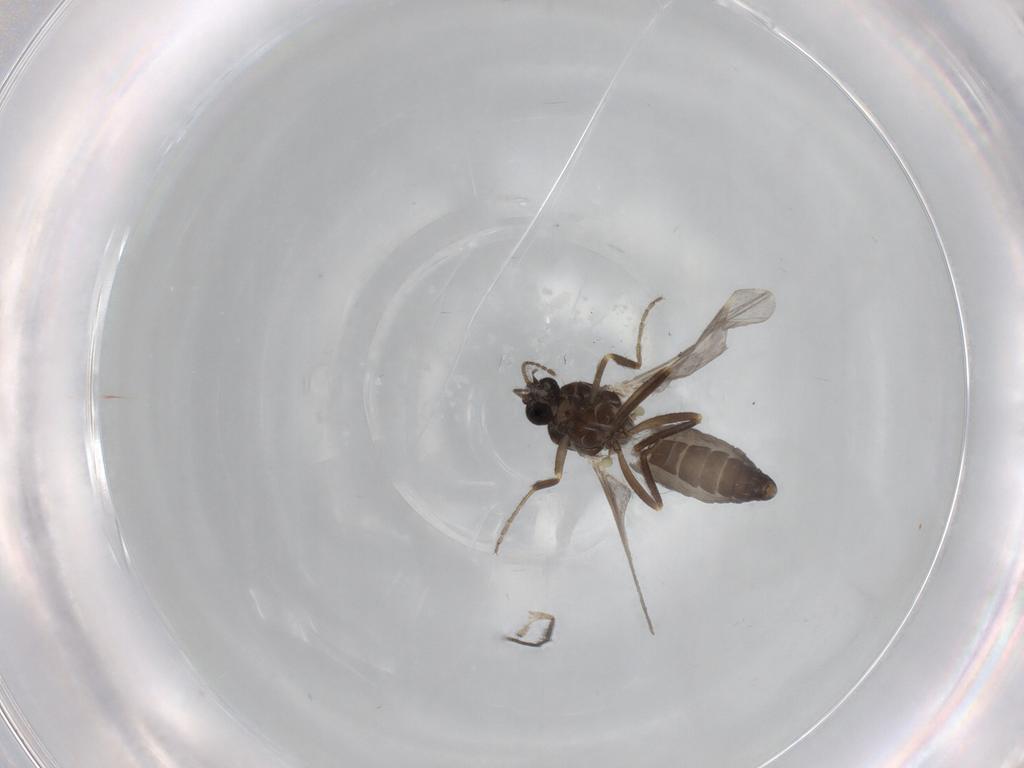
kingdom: Animalia
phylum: Arthropoda
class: Insecta
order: Diptera
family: Ceratopogonidae
